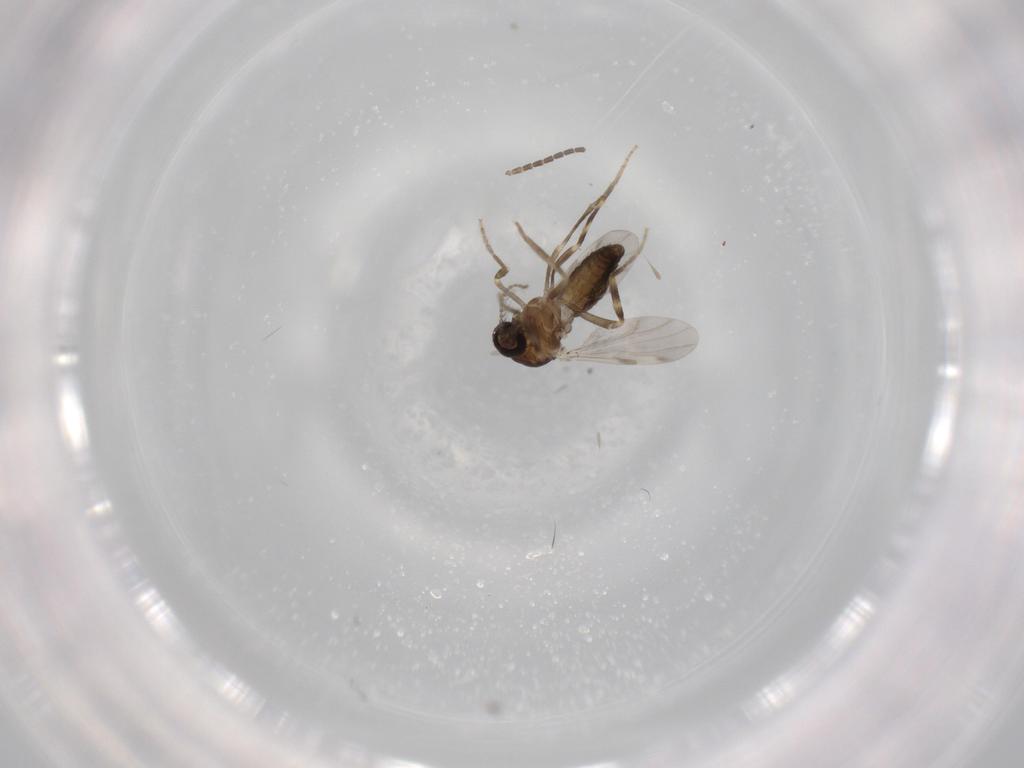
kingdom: Animalia
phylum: Arthropoda
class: Insecta
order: Diptera
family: Ceratopogonidae
